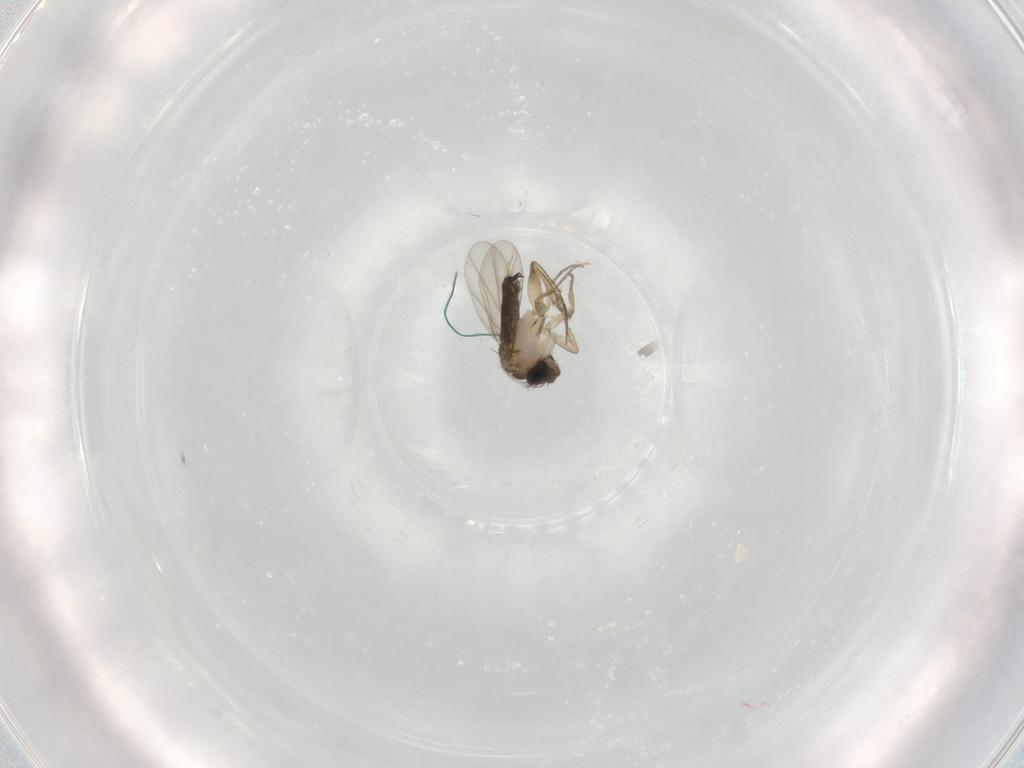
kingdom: Animalia
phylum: Arthropoda
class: Insecta
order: Diptera
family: Phoridae
